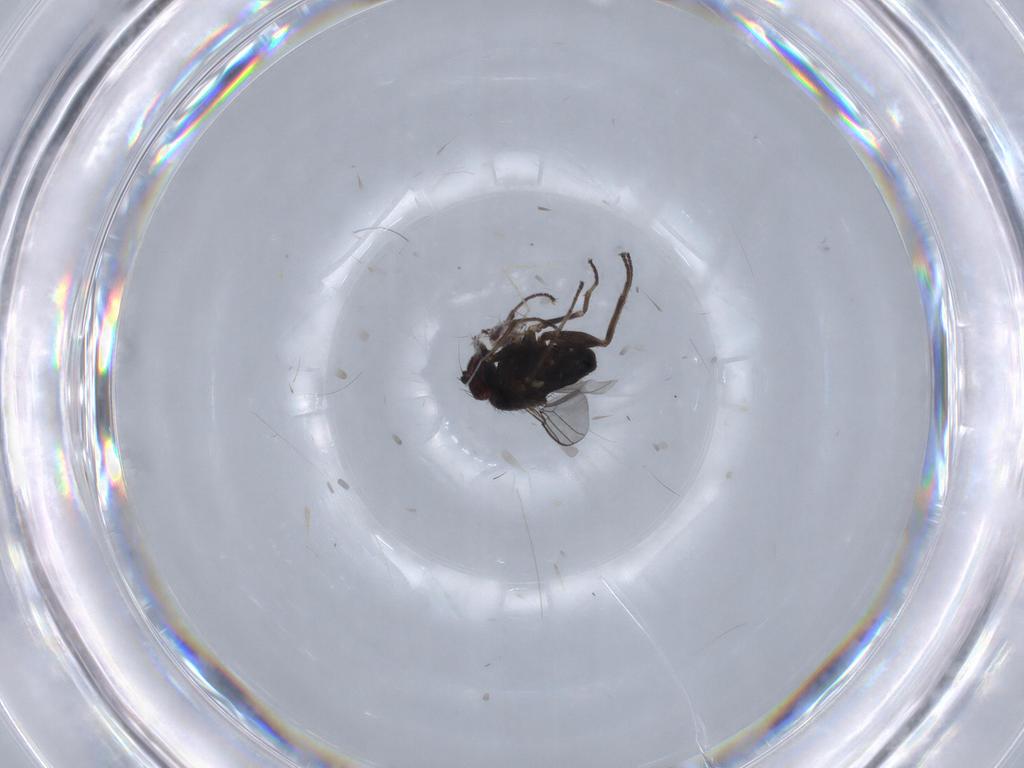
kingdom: Animalia
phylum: Arthropoda
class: Insecta
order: Diptera
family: Dolichopodidae
